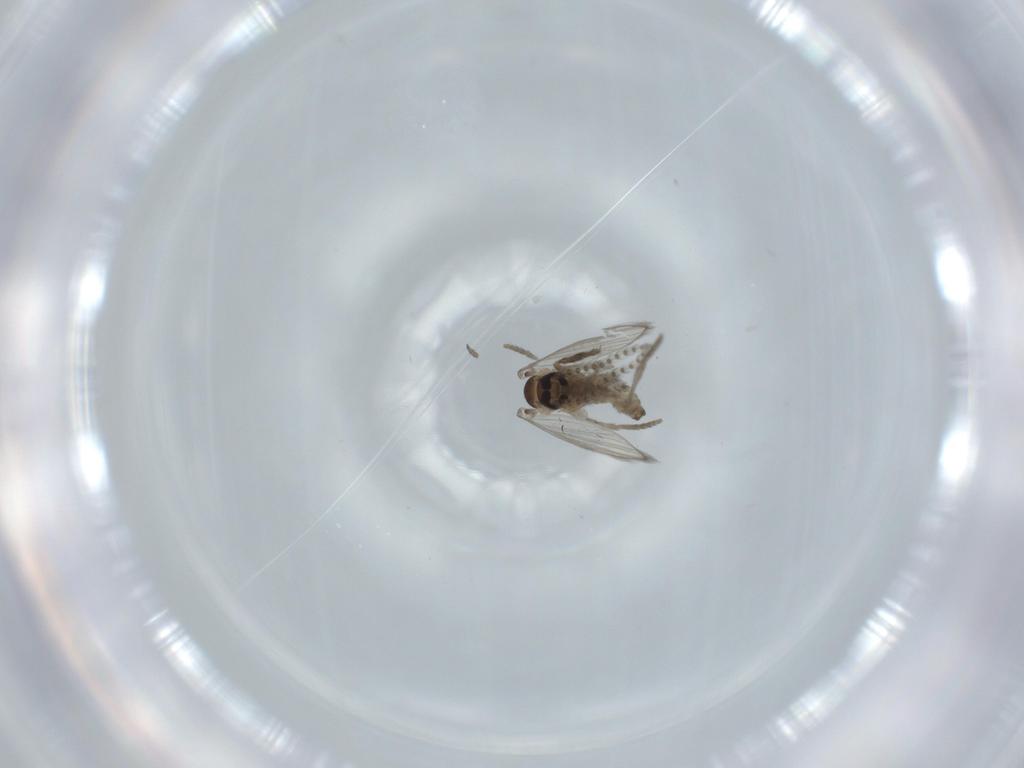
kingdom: Animalia
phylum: Arthropoda
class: Insecta
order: Diptera
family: Psychodidae
